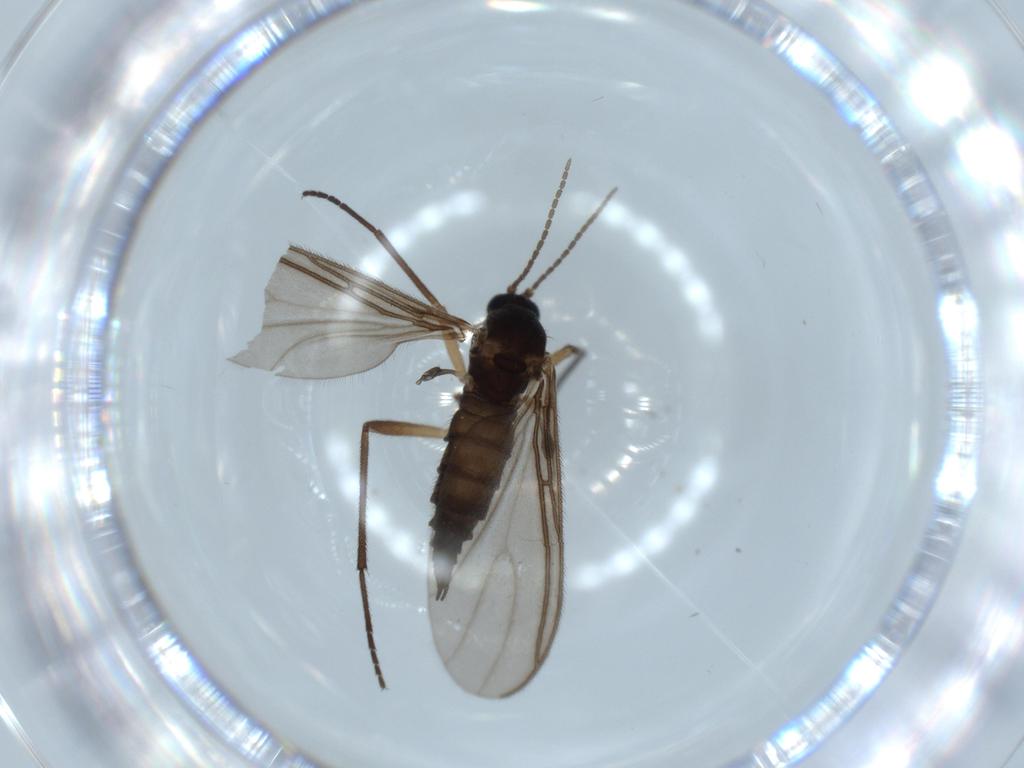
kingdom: Animalia
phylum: Arthropoda
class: Insecta
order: Diptera
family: Sciaridae
